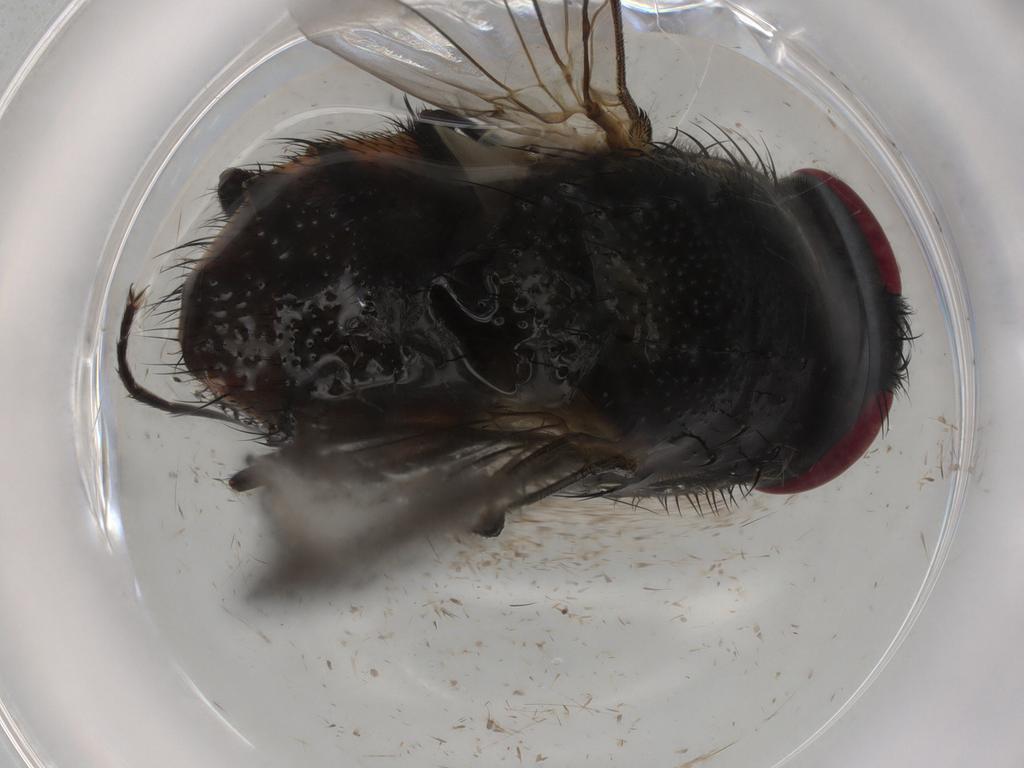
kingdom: Animalia
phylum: Arthropoda
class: Insecta
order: Diptera
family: Muscidae
